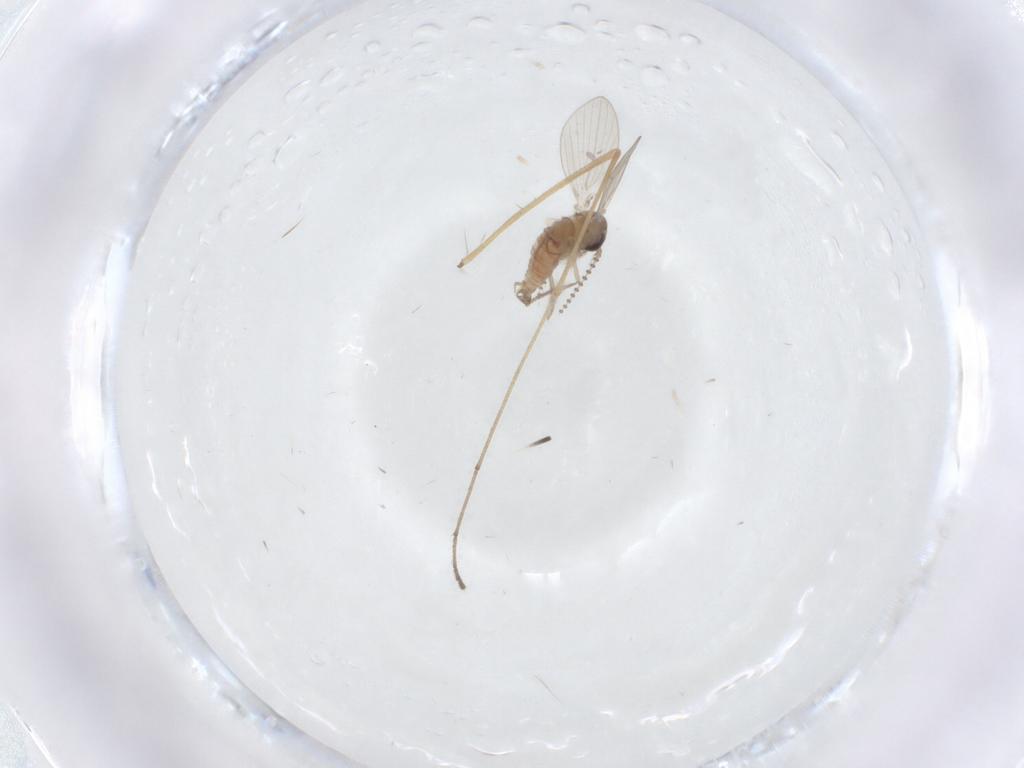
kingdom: Animalia
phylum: Arthropoda
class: Insecta
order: Diptera
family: Psychodidae
